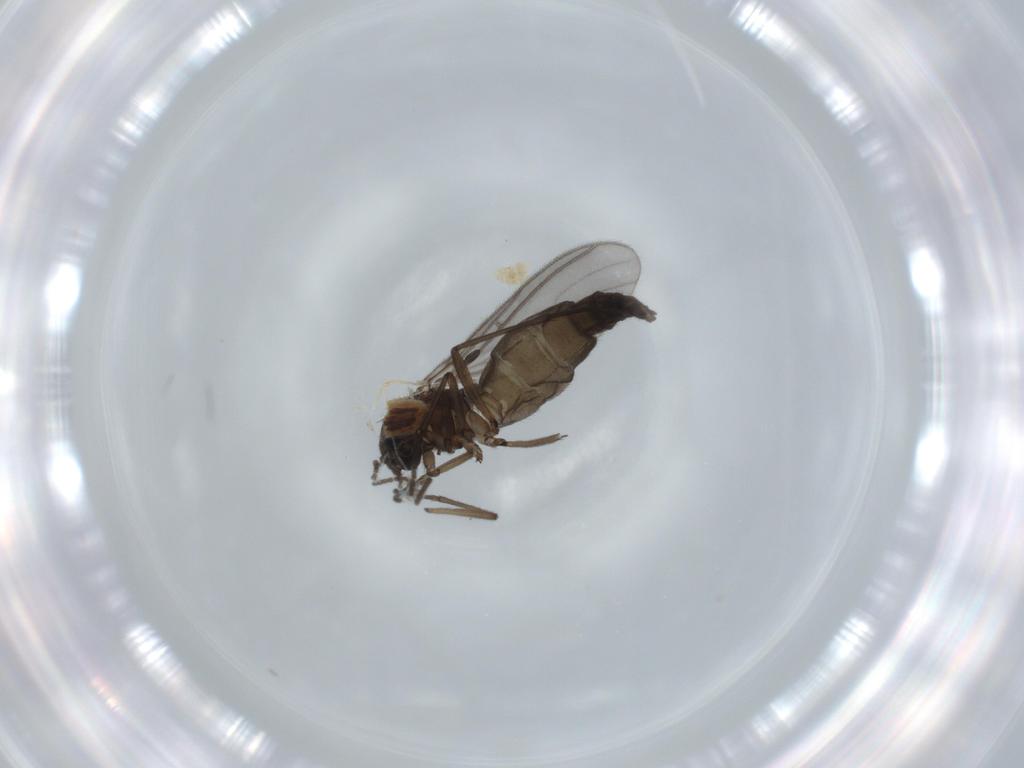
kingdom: Animalia
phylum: Arthropoda
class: Insecta
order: Diptera
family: Sciaridae
